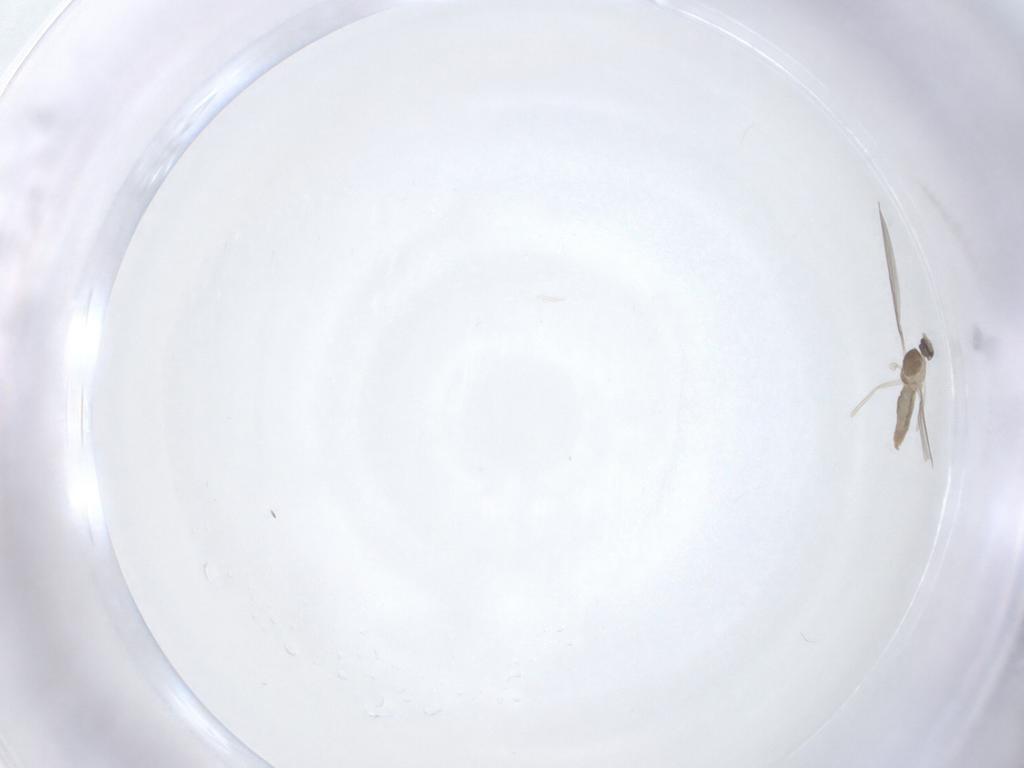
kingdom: Animalia
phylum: Arthropoda
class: Insecta
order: Diptera
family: Cecidomyiidae
